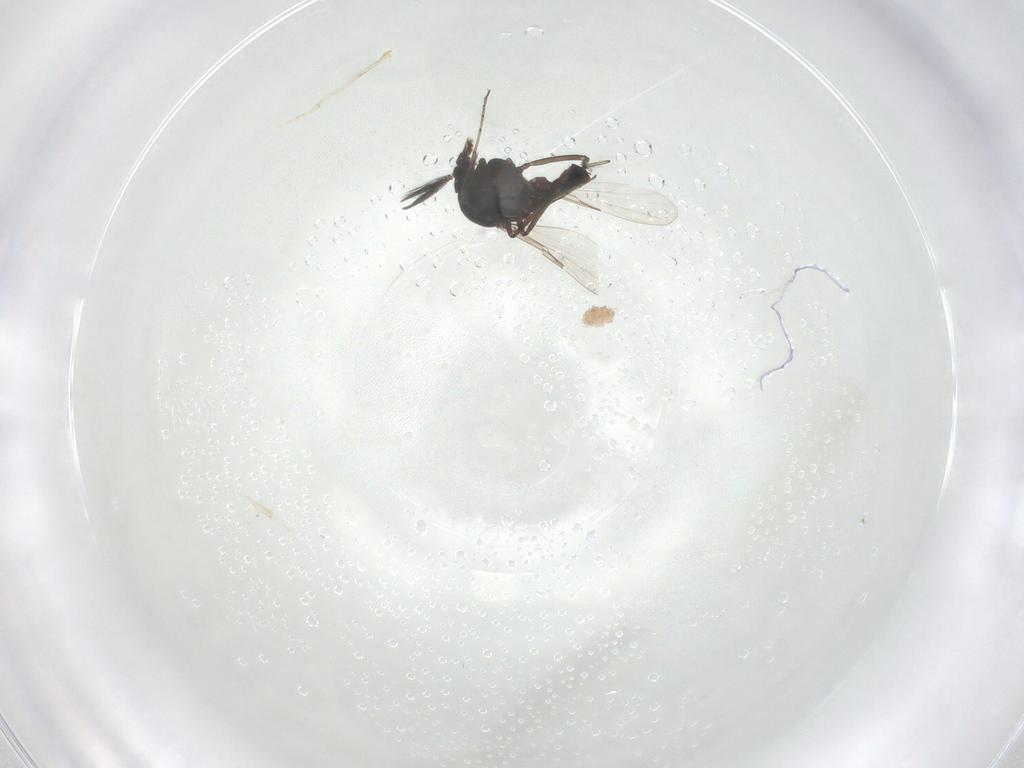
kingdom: Animalia
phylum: Arthropoda
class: Insecta
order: Diptera
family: Ceratopogonidae
